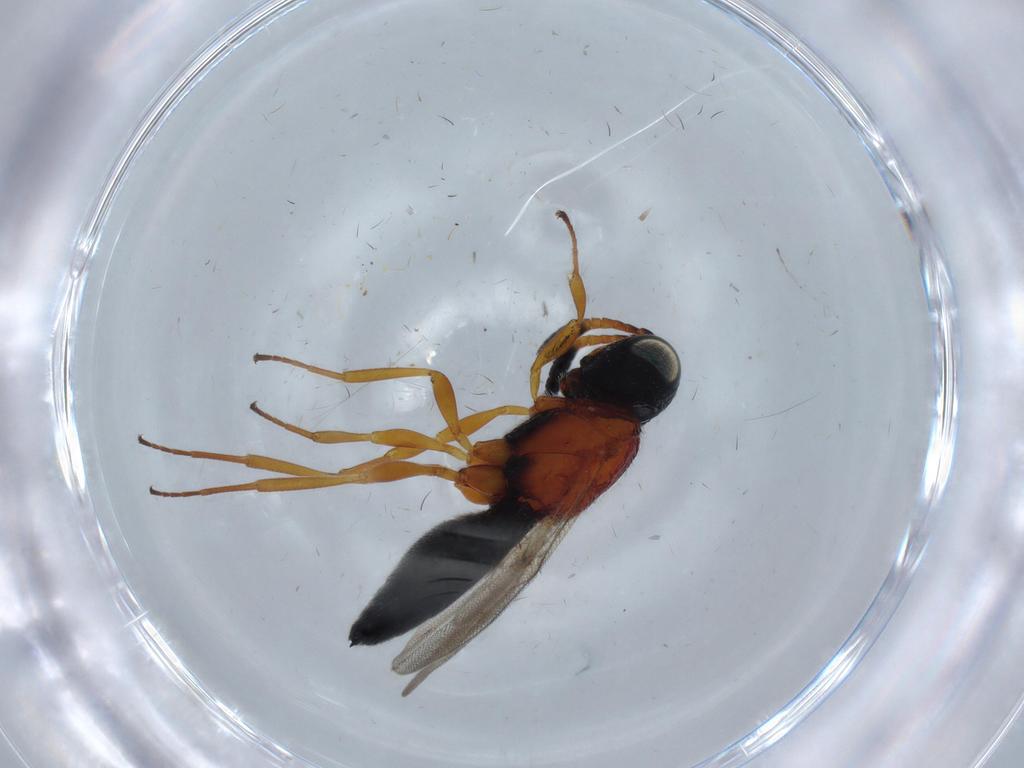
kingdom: Animalia
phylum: Arthropoda
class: Insecta
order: Hymenoptera
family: Scelionidae
